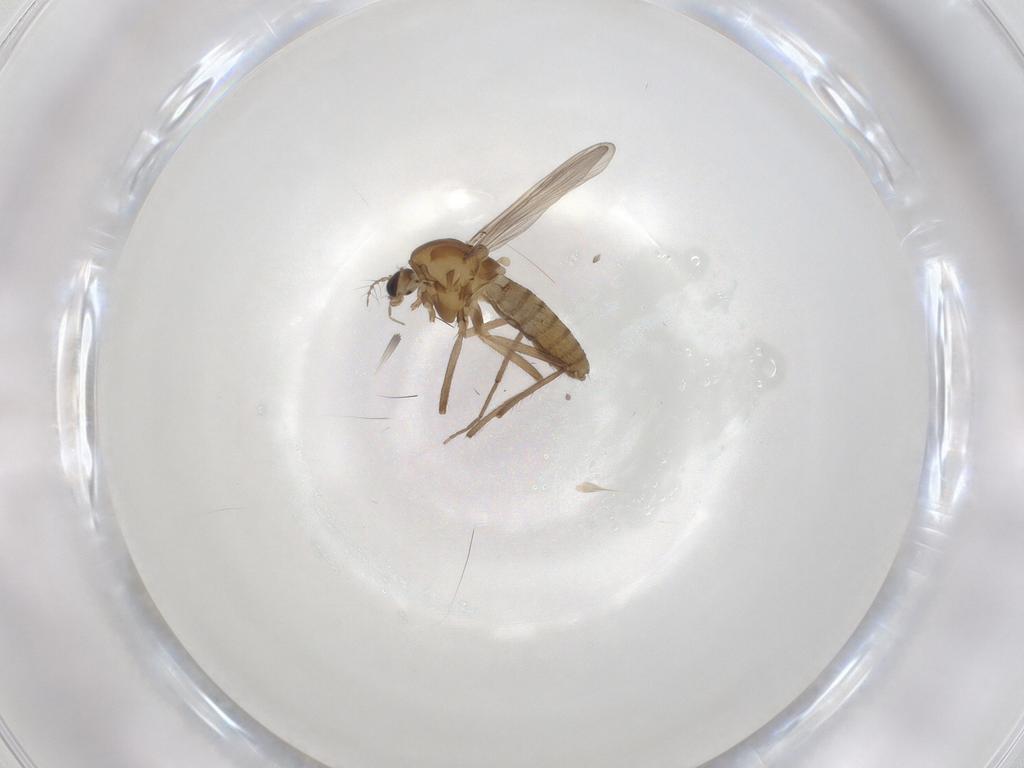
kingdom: Animalia
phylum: Arthropoda
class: Insecta
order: Diptera
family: Chironomidae
